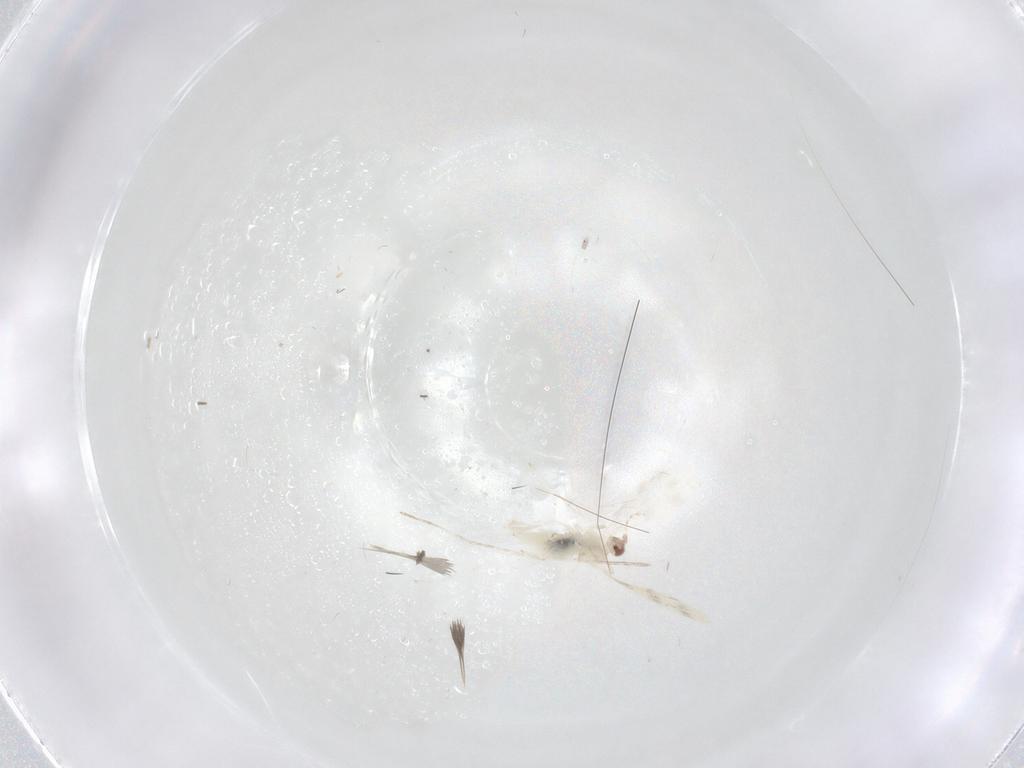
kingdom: Animalia
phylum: Arthropoda
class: Insecta
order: Diptera
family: Cecidomyiidae
